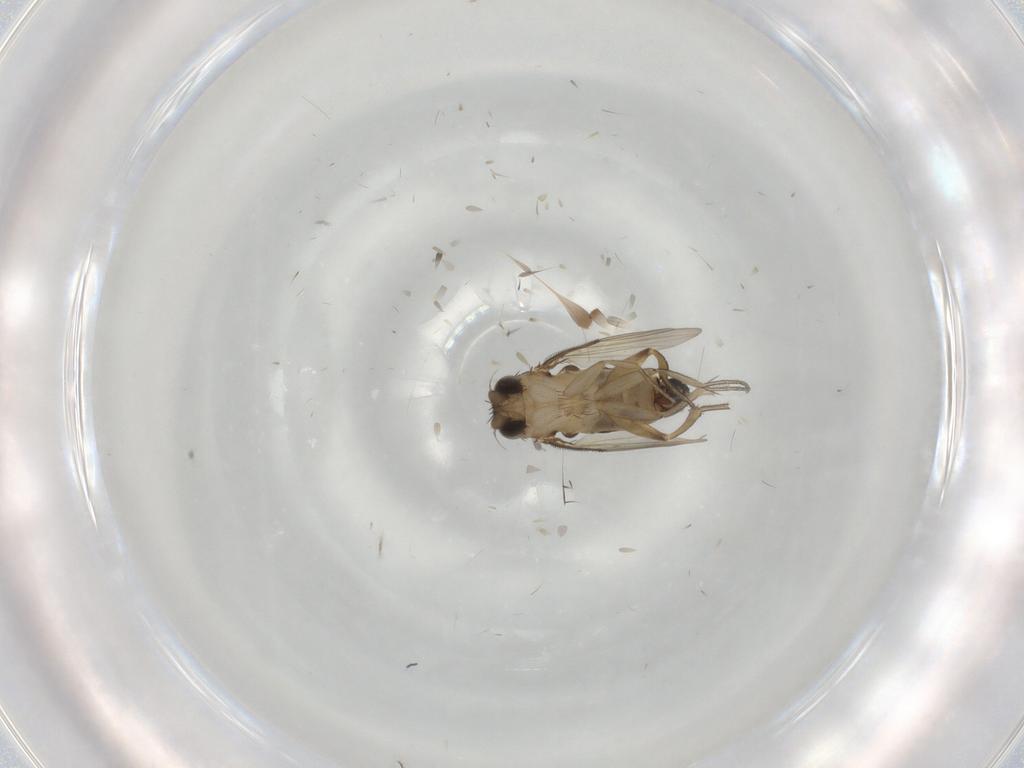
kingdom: Animalia
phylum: Arthropoda
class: Insecta
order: Diptera
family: Phoridae
